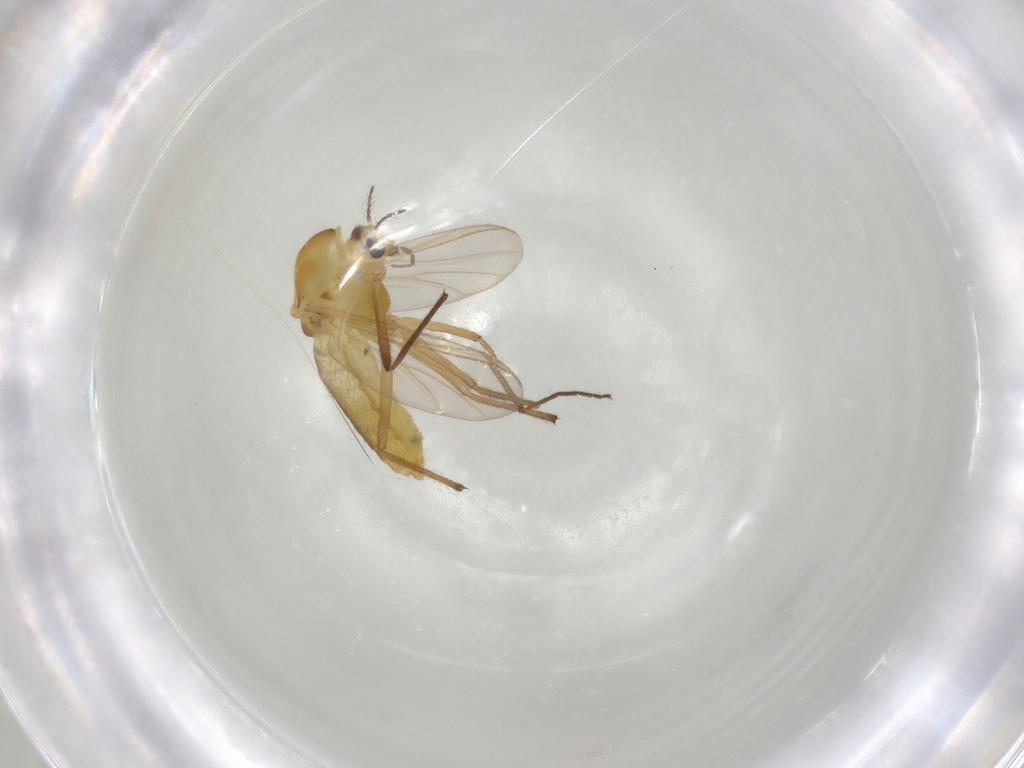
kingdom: Animalia
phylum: Arthropoda
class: Insecta
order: Diptera
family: Chironomidae
